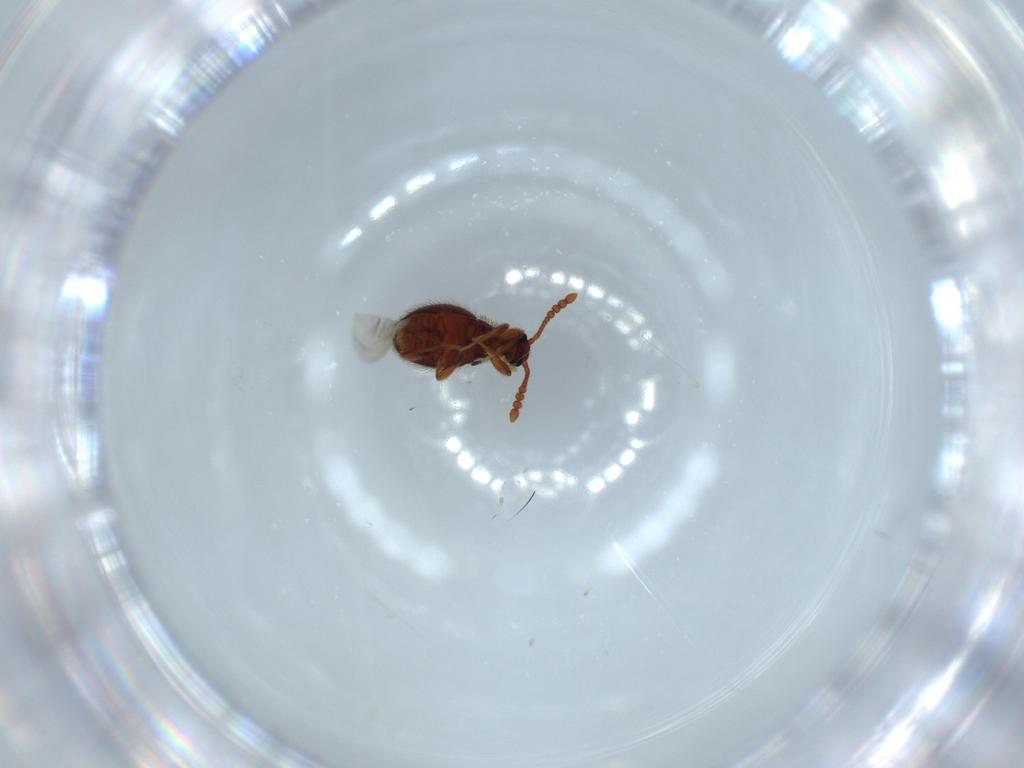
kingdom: Animalia
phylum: Arthropoda
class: Insecta
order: Coleoptera
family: Staphylinidae
